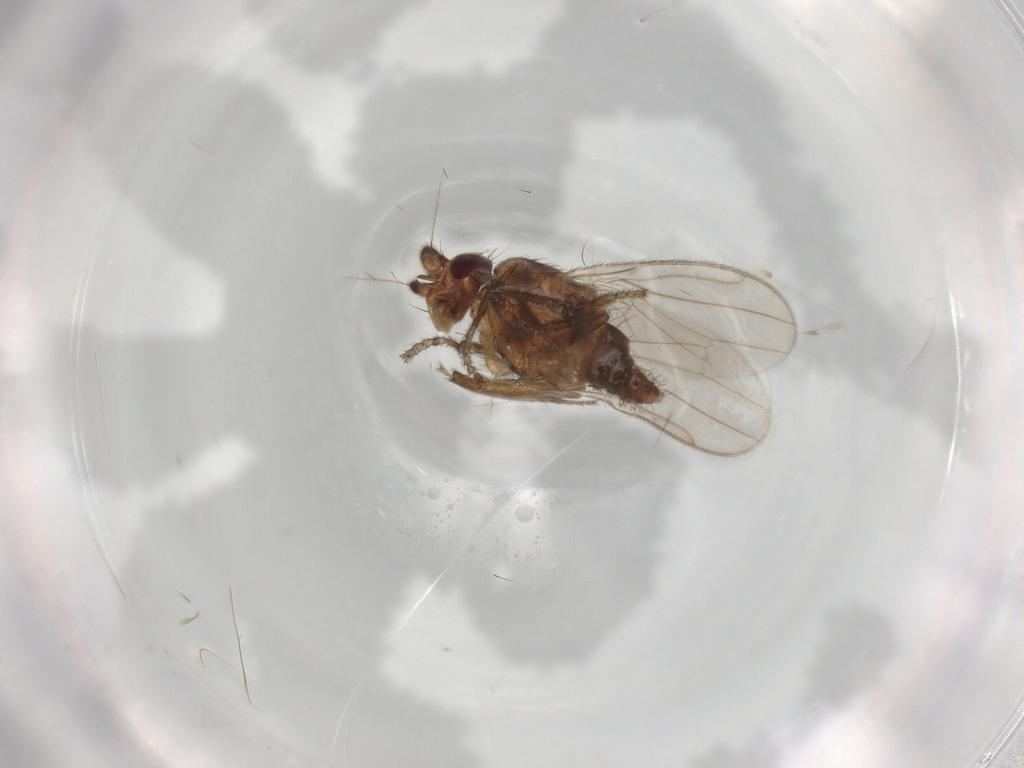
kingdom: Animalia
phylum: Arthropoda
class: Insecta
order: Diptera
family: Sphaeroceridae
